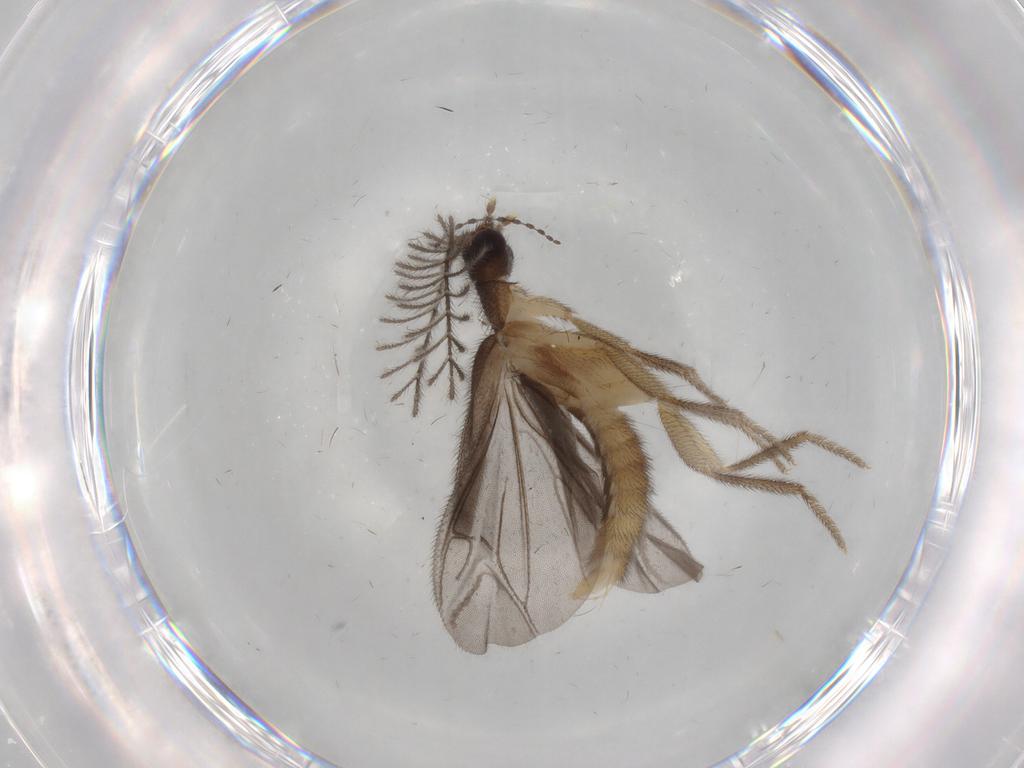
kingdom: Animalia
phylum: Arthropoda
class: Insecta
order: Coleoptera
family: Phengodidae
